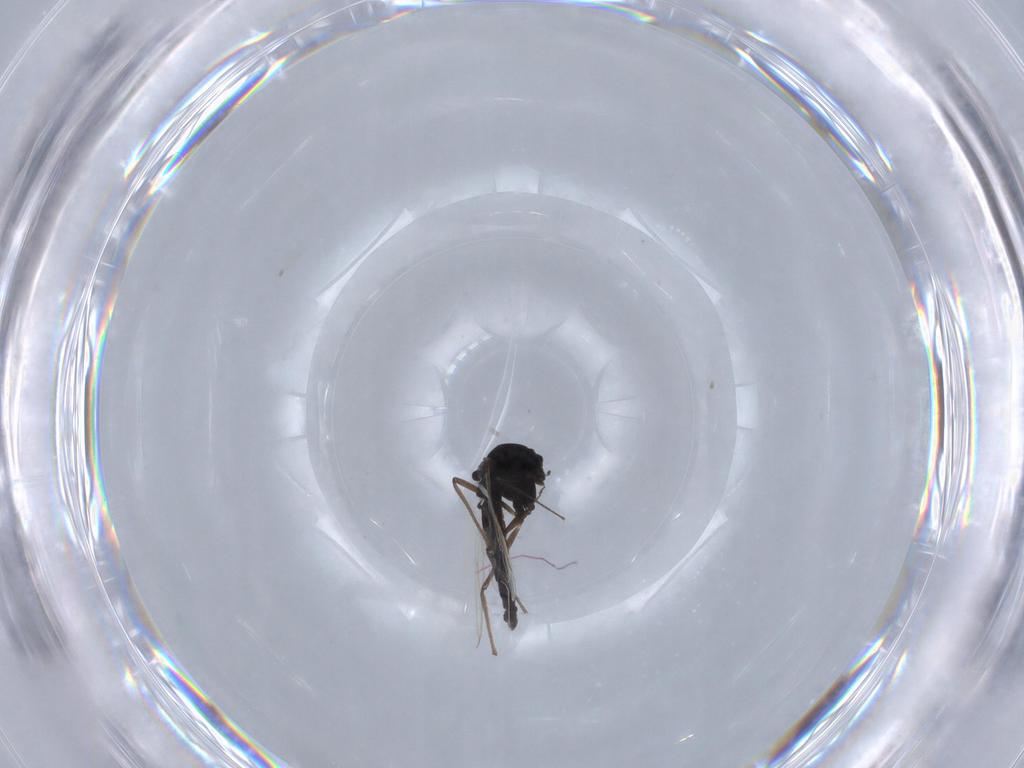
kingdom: Animalia
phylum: Arthropoda
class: Insecta
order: Diptera
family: Chironomidae
